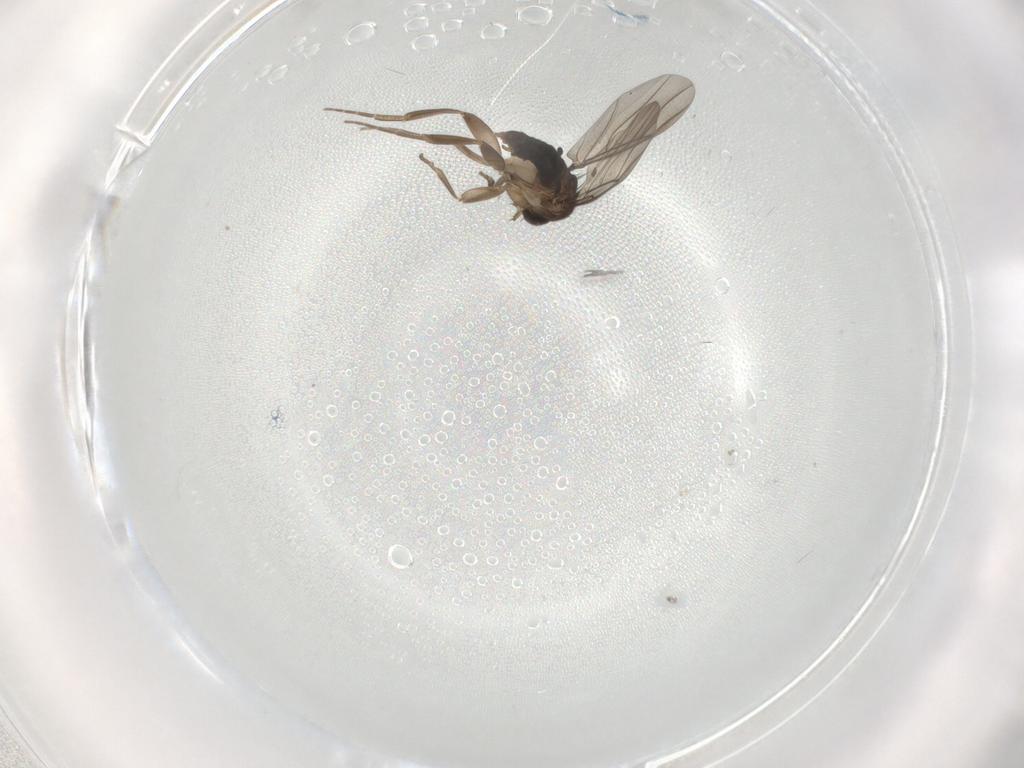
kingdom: Animalia
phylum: Arthropoda
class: Insecta
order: Diptera
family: Phoridae
